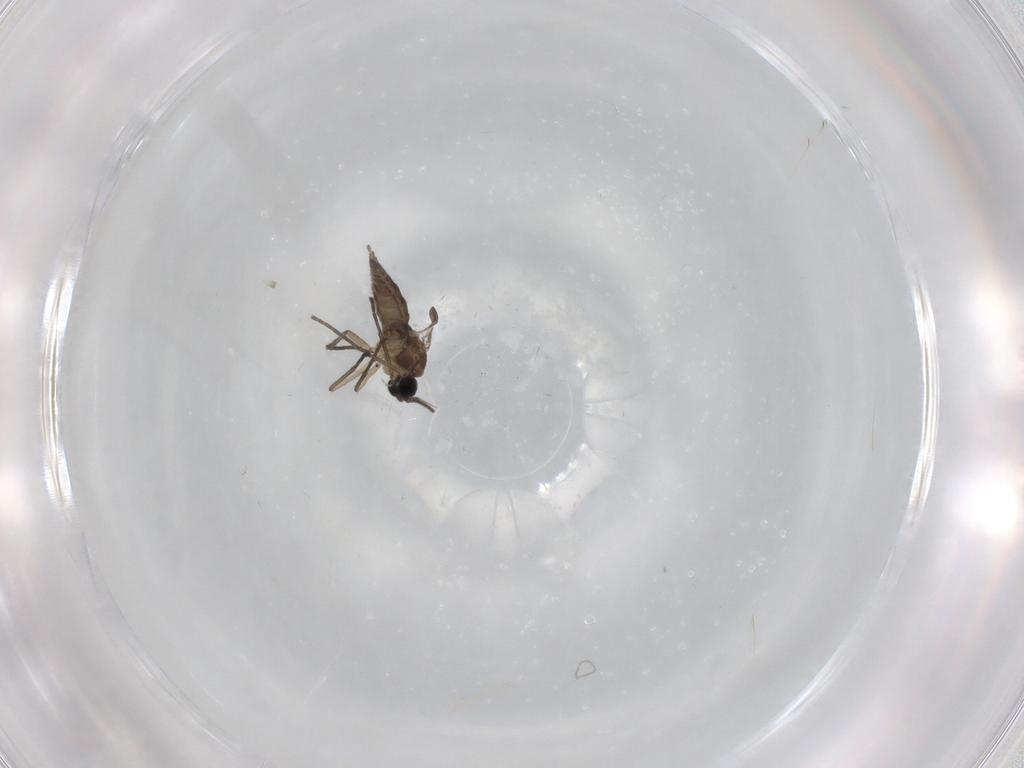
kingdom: Animalia
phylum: Arthropoda
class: Insecta
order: Diptera
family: Sciaridae
